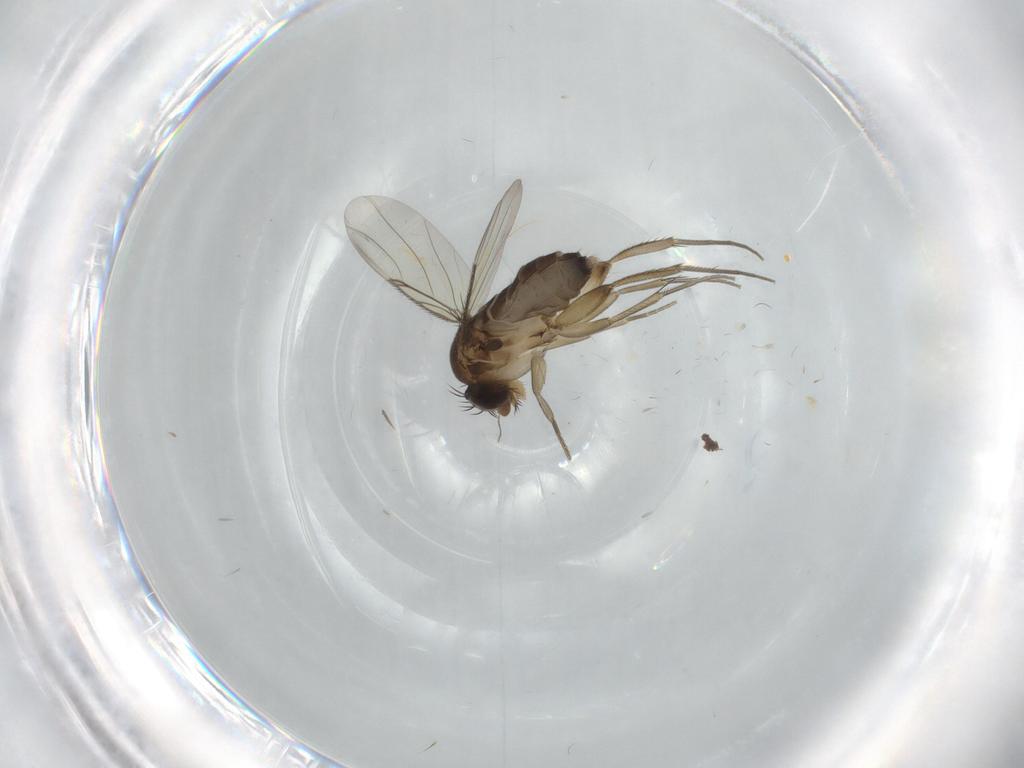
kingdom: Animalia
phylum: Arthropoda
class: Insecta
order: Diptera
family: Phoridae
